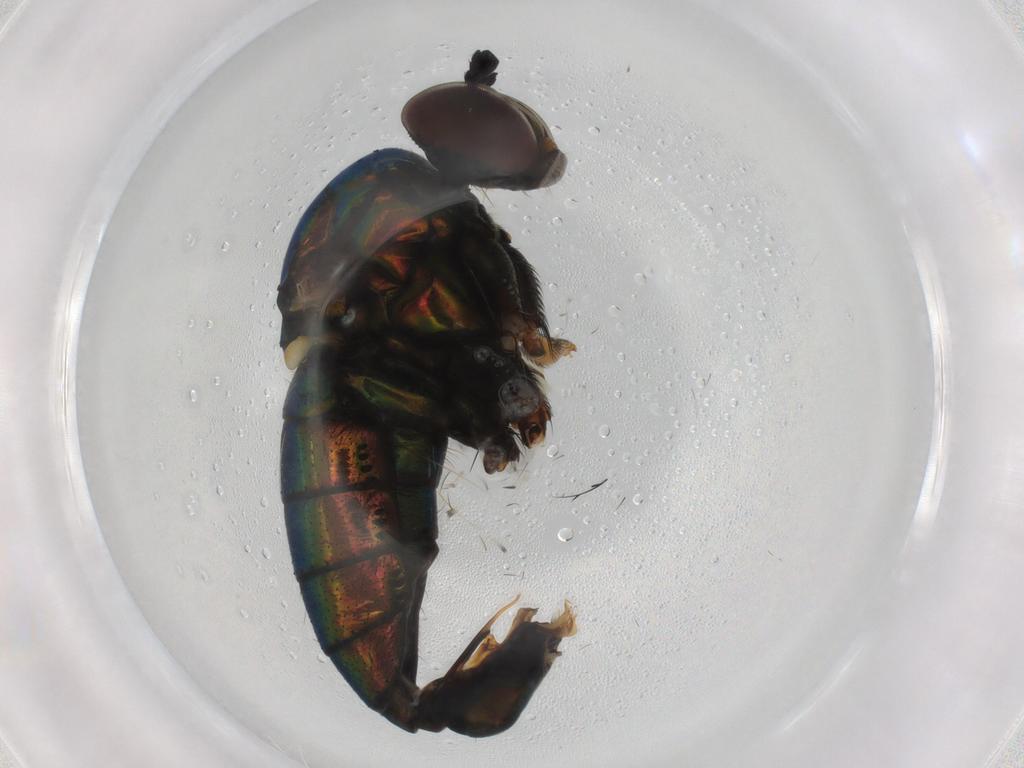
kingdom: Animalia
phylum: Arthropoda
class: Insecta
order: Diptera
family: Dolichopodidae
